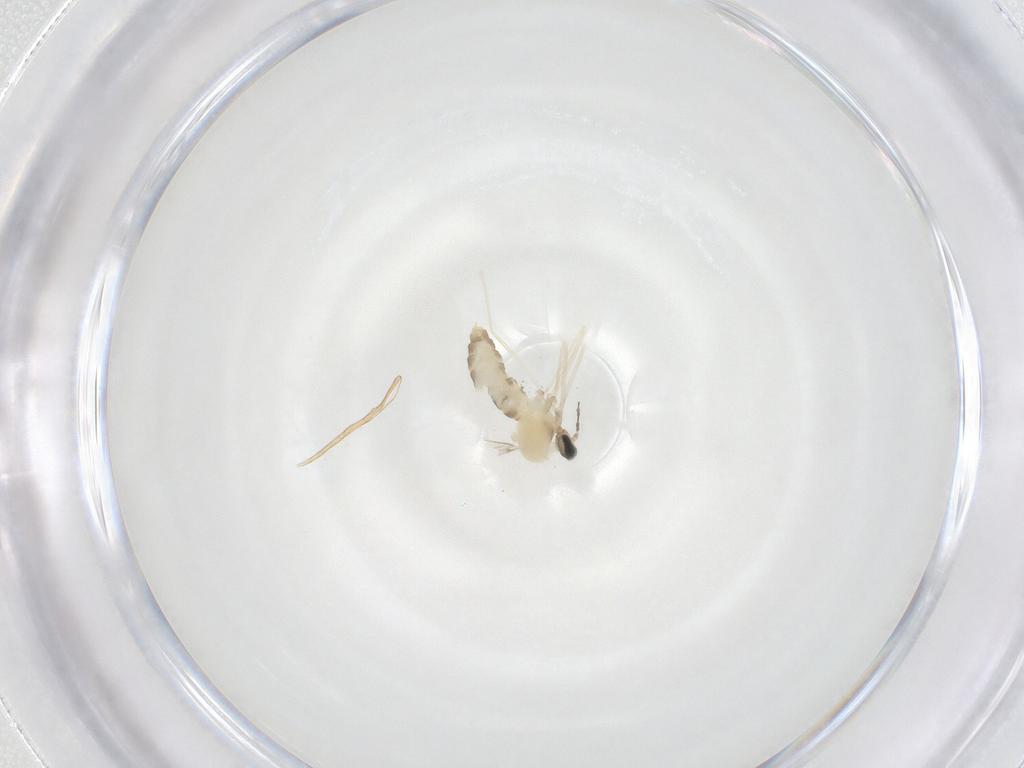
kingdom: Animalia
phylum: Arthropoda
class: Insecta
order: Diptera
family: Cecidomyiidae
